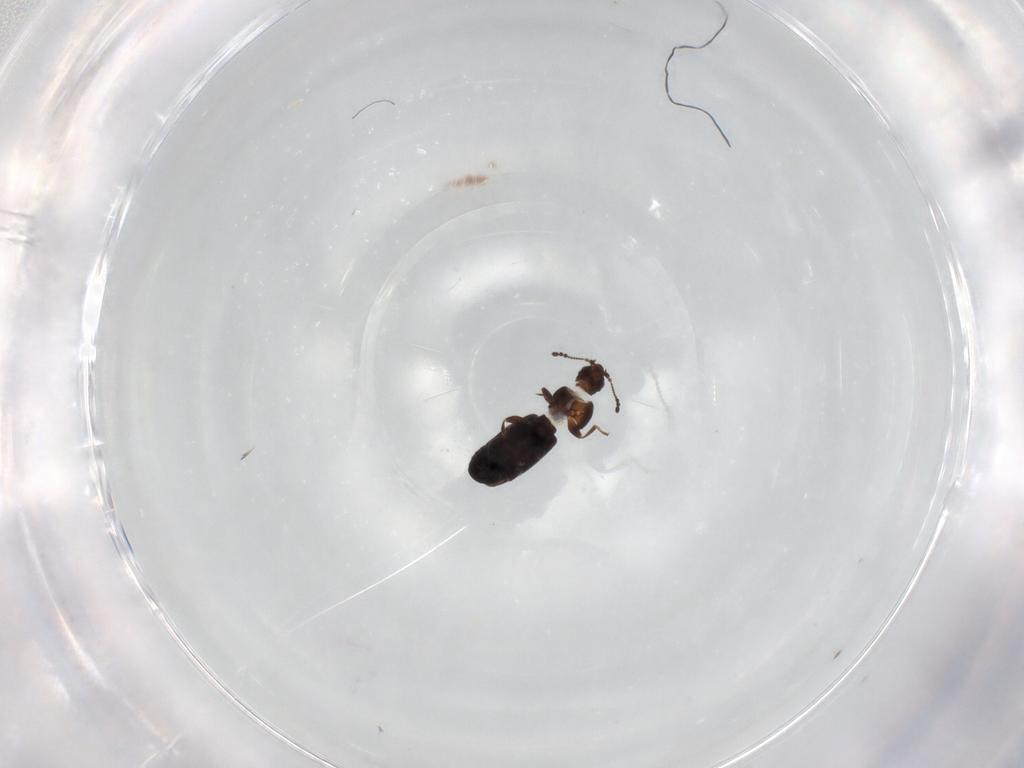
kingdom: Animalia
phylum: Arthropoda
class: Insecta
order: Coleoptera
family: Latridiidae
